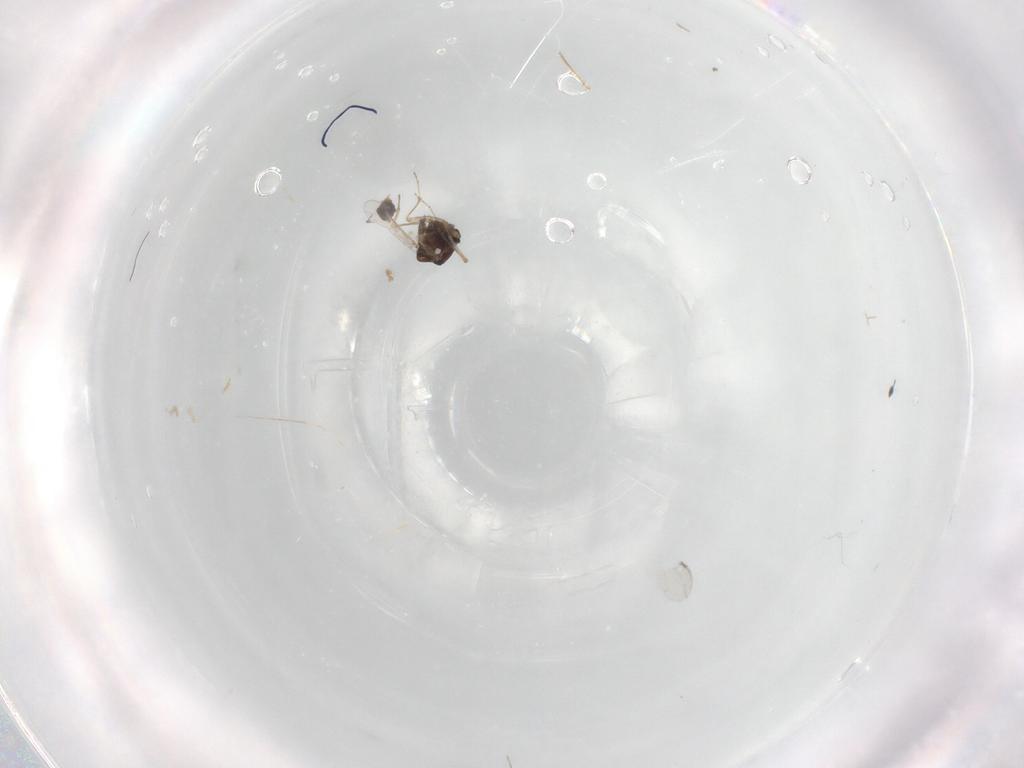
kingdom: Animalia
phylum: Arthropoda
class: Insecta
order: Diptera
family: Ceratopogonidae
